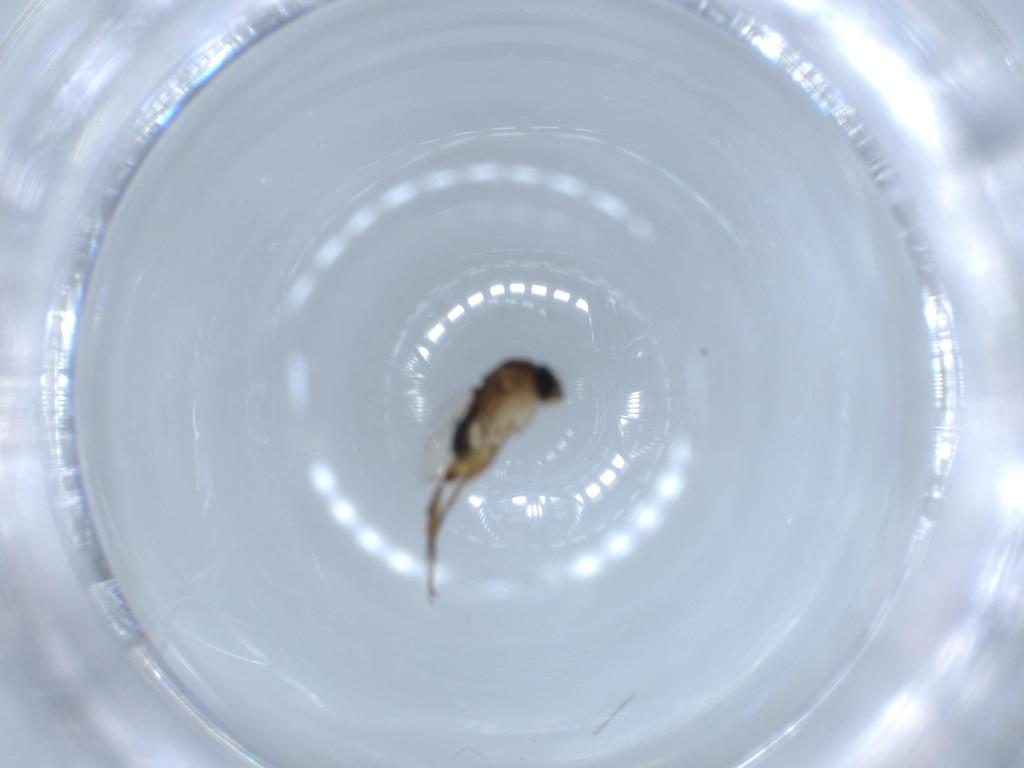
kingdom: Animalia
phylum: Arthropoda
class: Insecta
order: Diptera
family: Phoridae
